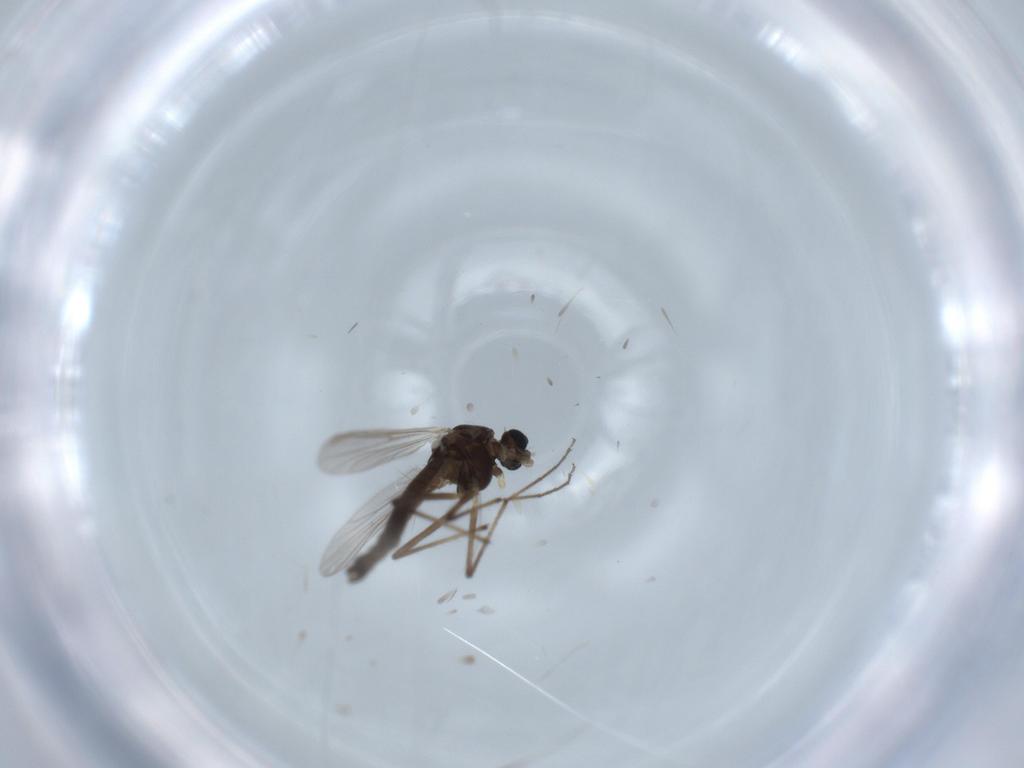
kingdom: Animalia
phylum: Arthropoda
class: Insecta
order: Diptera
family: Chironomidae
